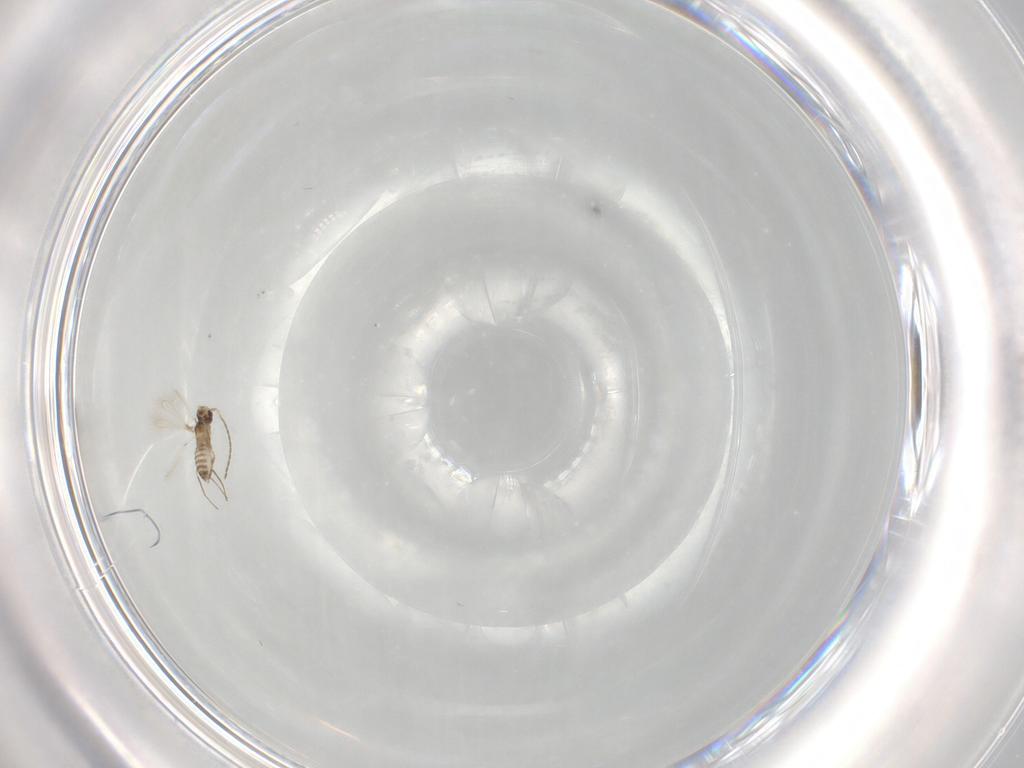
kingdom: Animalia
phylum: Arthropoda
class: Insecta
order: Hymenoptera
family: Mymaridae
